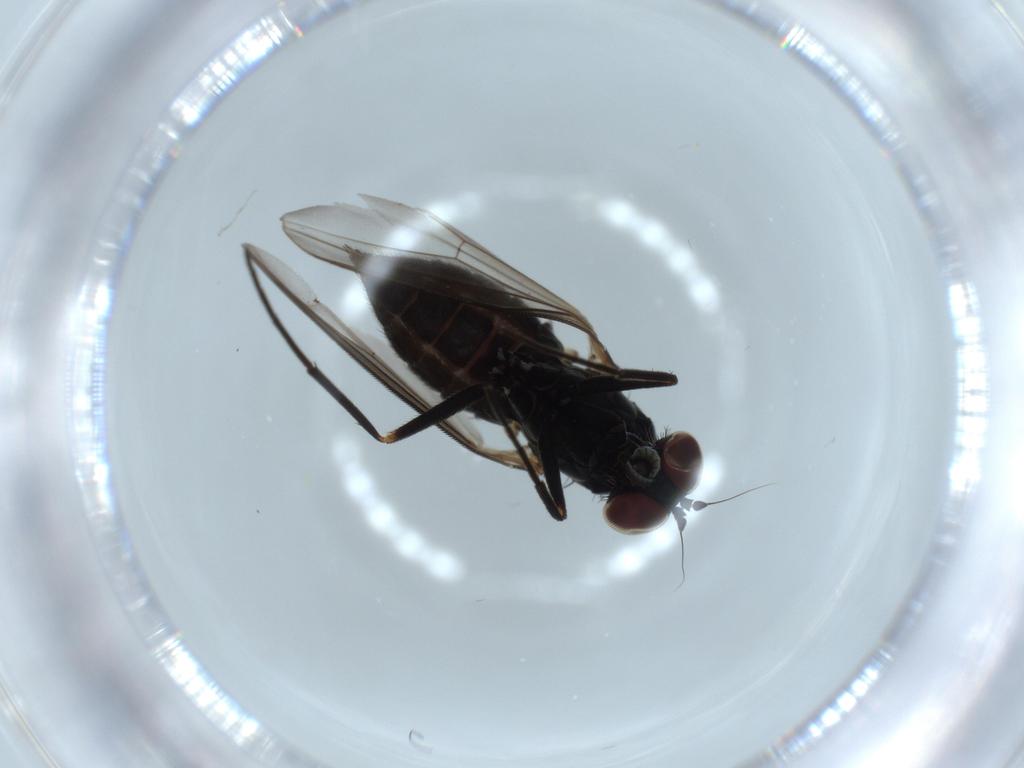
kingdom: Animalia
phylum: Arthropoda
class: Insecta
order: Diptera
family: Dolichopodidae
